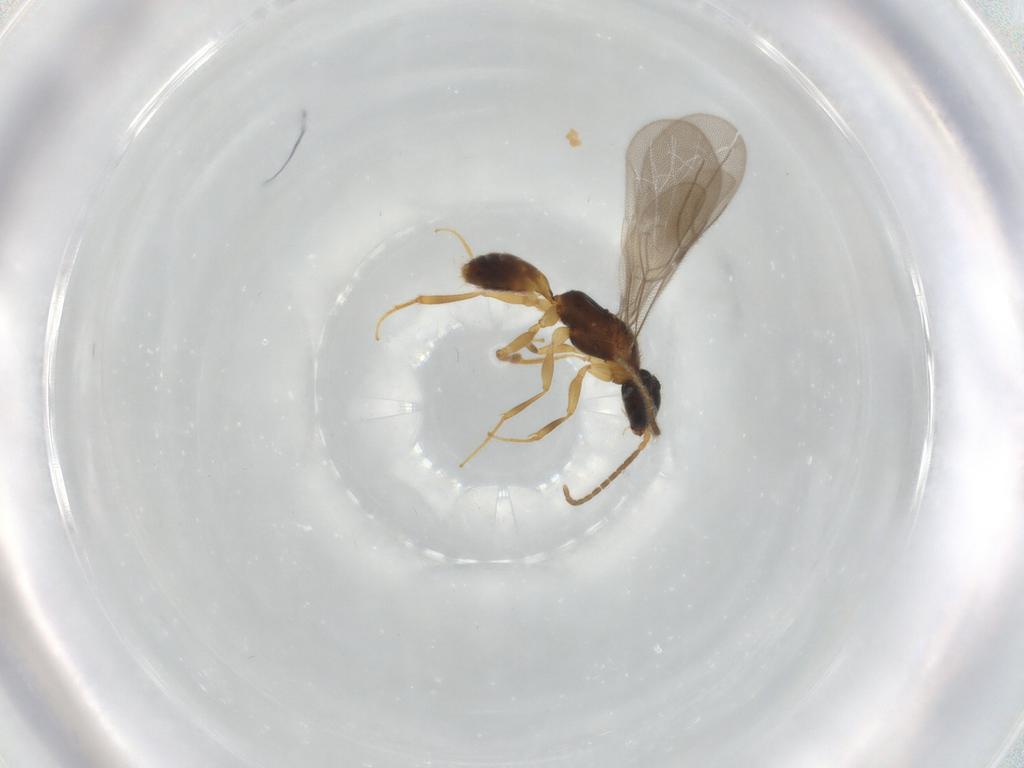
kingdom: Animalia
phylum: Arthropoda
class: Insecta
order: Hymenoptera
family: Bethylidae
